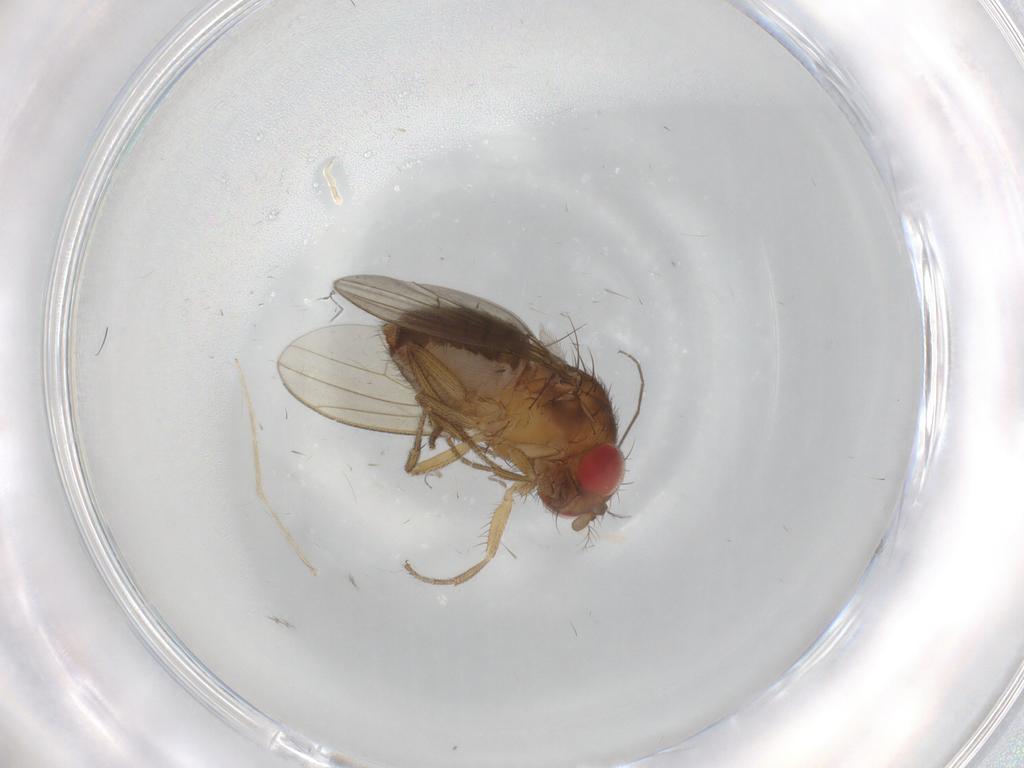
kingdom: Animalia
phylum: Arthropoda
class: Insecta
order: Diptera
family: Drosophilidae
